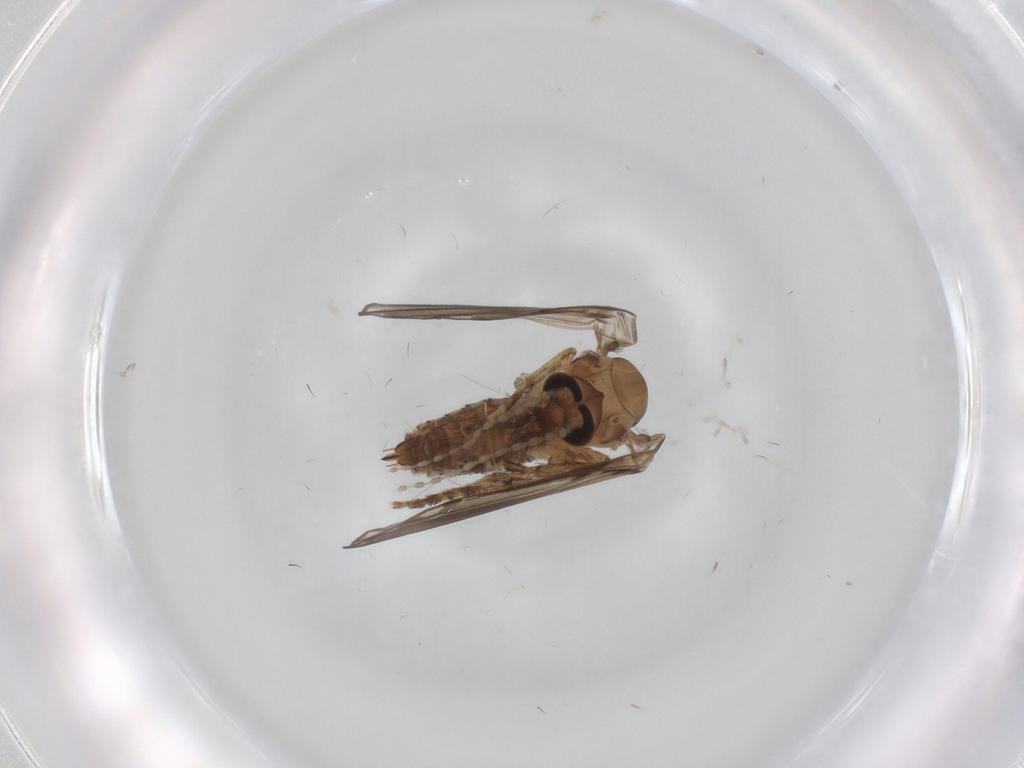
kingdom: Animalia
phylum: Arthropoda
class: Insecta
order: Diptera
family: Psychodidae
